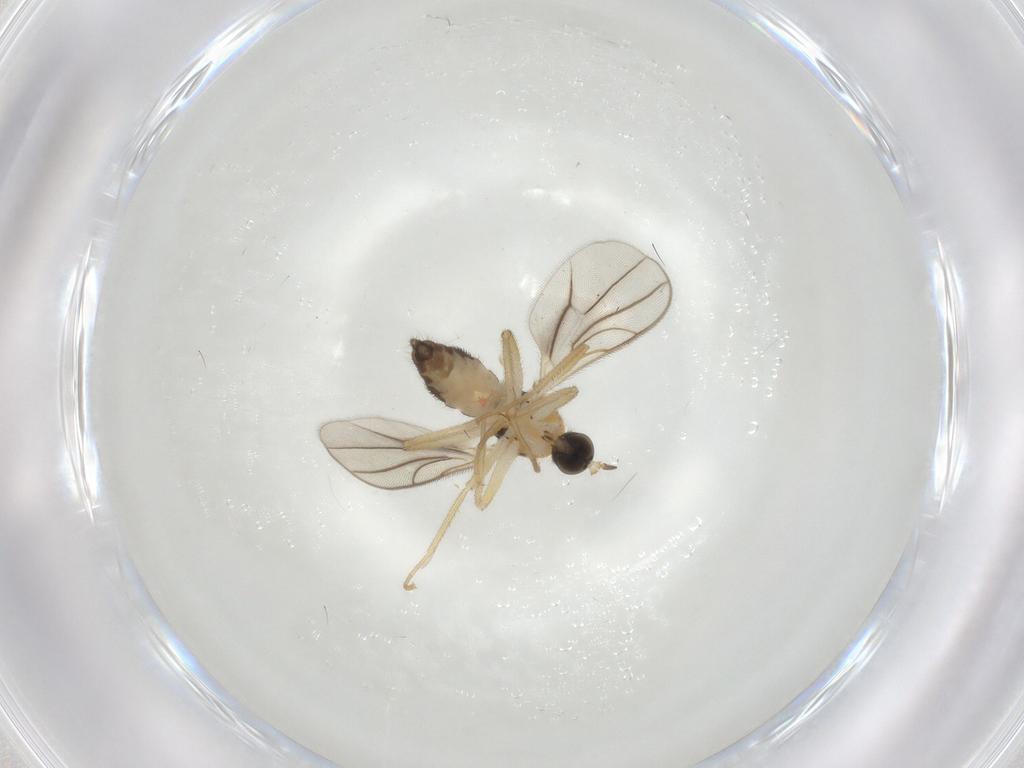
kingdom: Animalia
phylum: Arthropoda
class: Insecta
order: Diptera
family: Hybotidae
